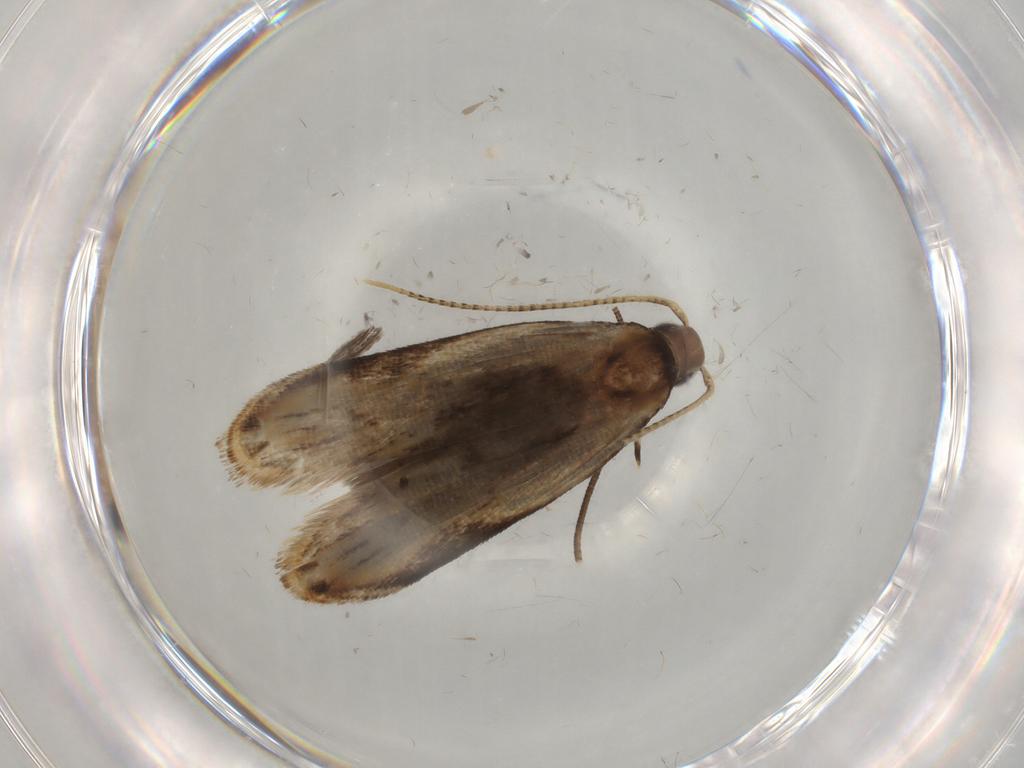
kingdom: Animalia
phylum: Arthropoda
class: Insecta
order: Lepidoptera
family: Gelechiidae
